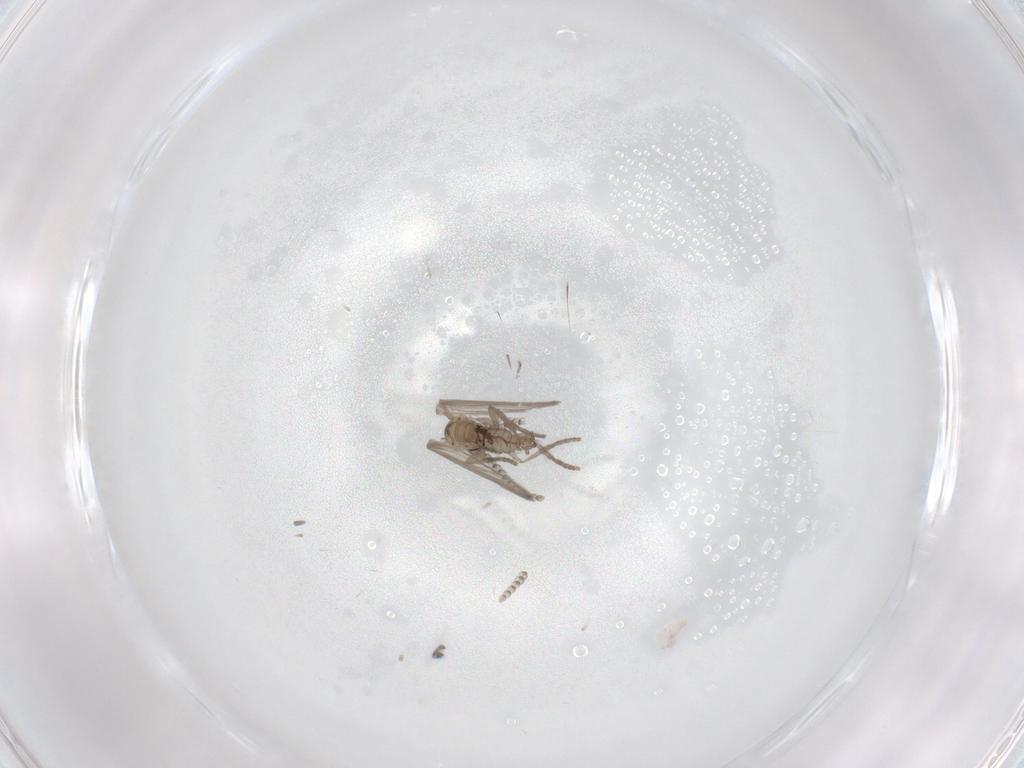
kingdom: Animalia
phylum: Arthropoda
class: Insecta
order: Diptera
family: Psychodidae
